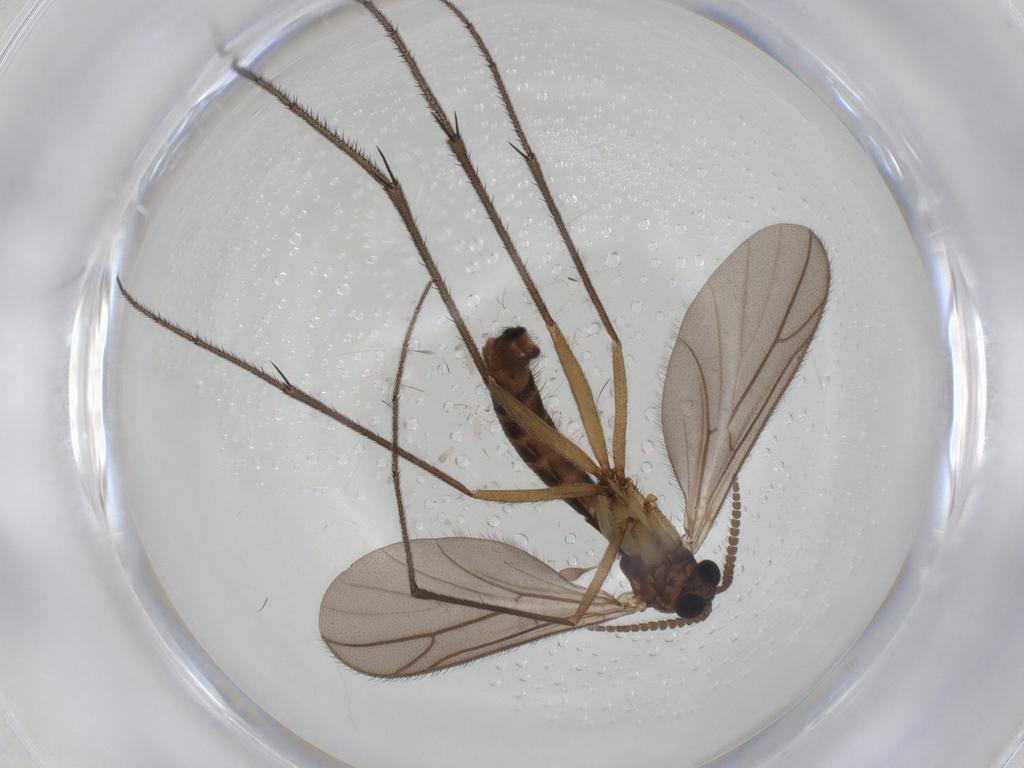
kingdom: Animalia
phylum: Arthropoda
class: Insecta
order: Diptera
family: Ditomyiidae
